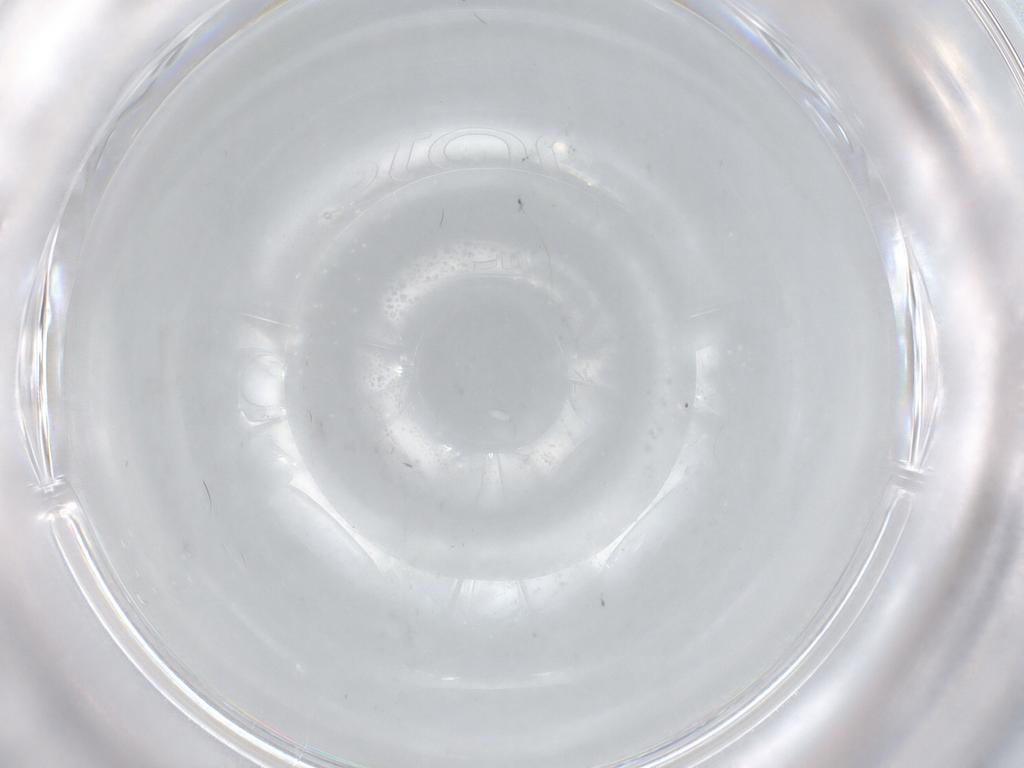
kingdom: Animalia
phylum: Arthropoda
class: Insecta
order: Diptera
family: Cecidomyiidae
